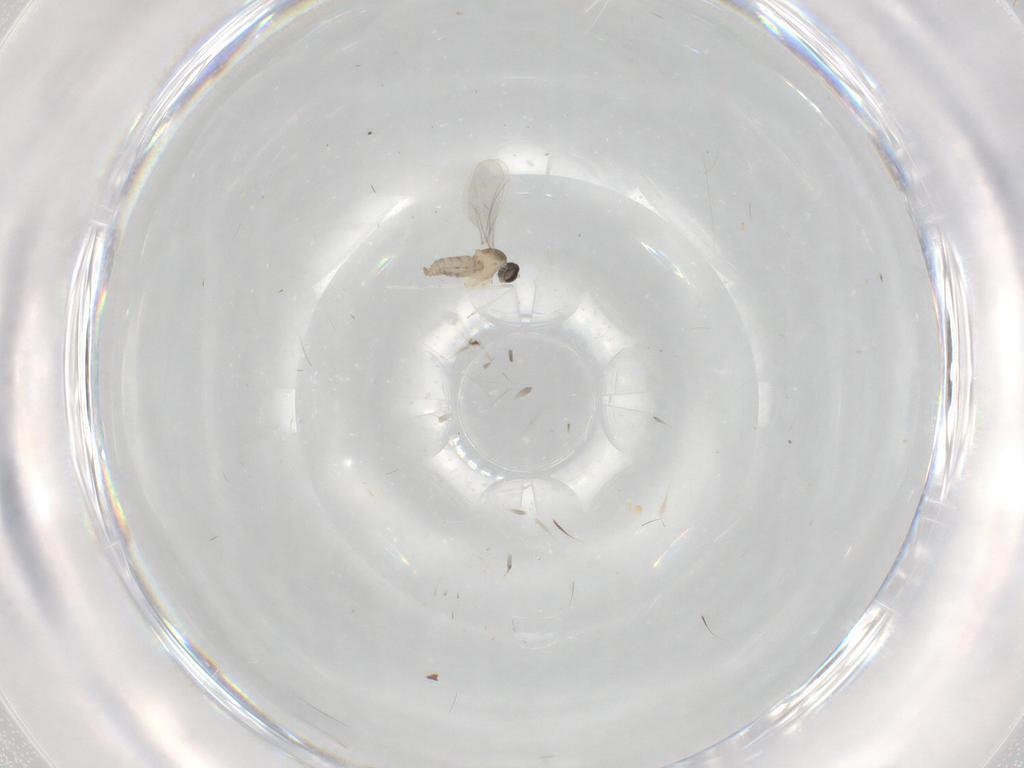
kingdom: Animalia
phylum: Arthropoda
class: Insecta
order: Diptera
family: Cecidomyiidae
